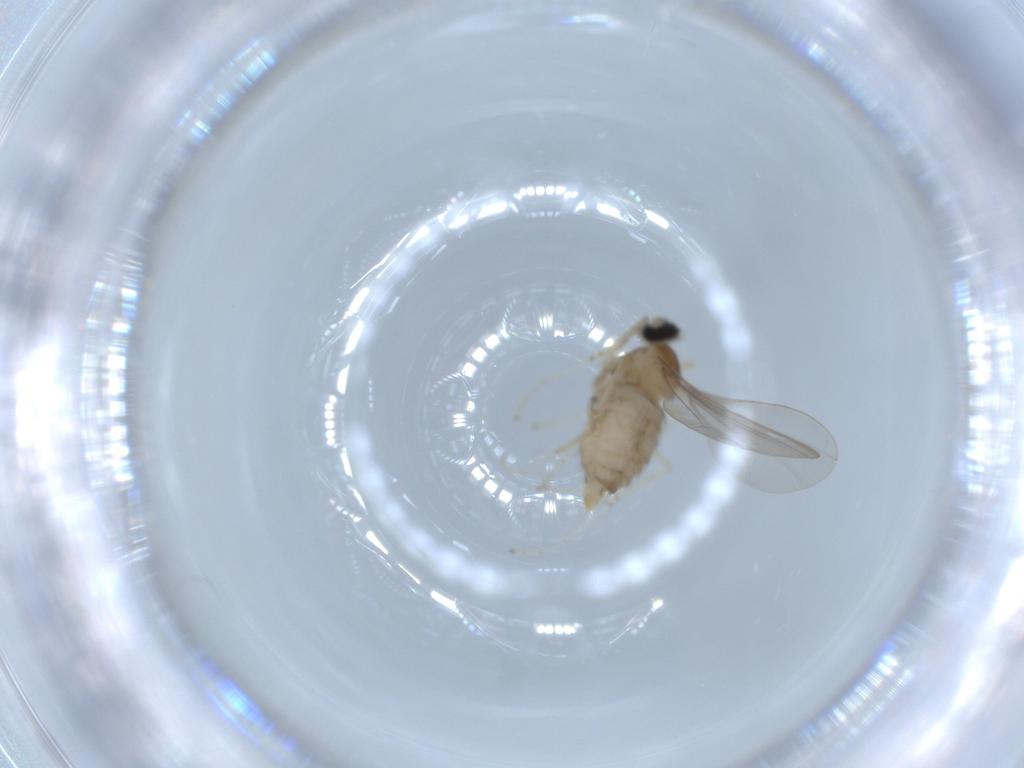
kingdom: Animalia
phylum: Arthropoda
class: Insecta
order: Diptera
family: Cecidomyiidae
